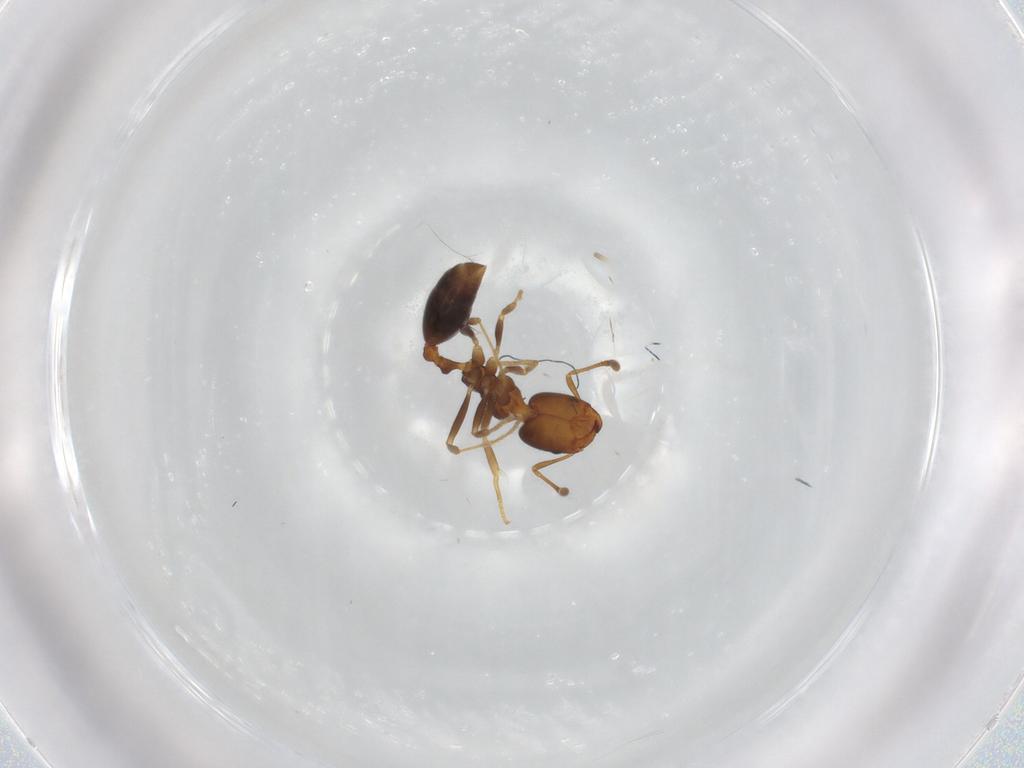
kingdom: Animalia
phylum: Arthropoda
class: Insecta
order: Hymenoptera
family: Formicidae
